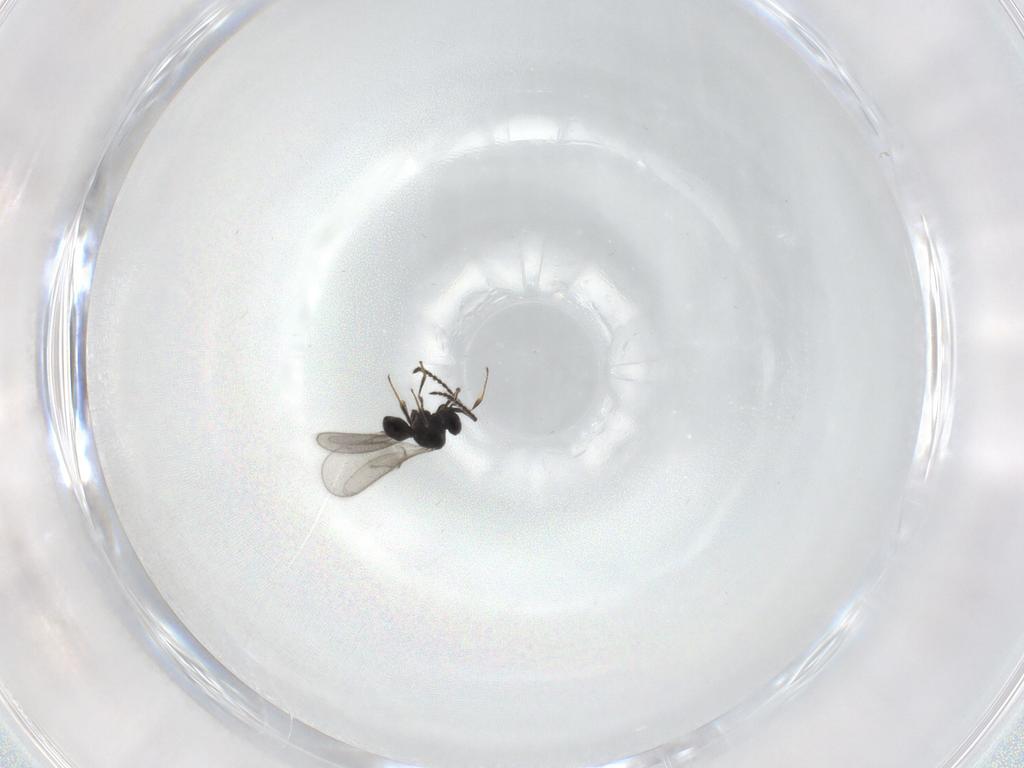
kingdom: Animalia
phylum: Arthropoda
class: Insecta
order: Hymenoptera
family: Scelionidae
